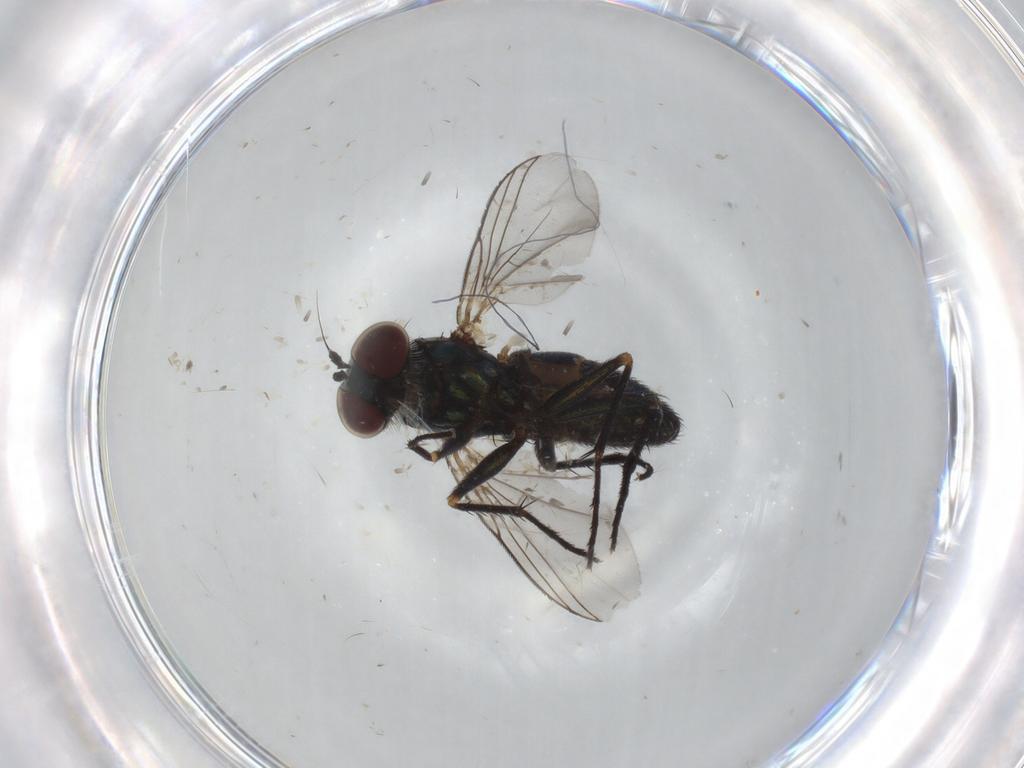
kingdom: Animalia
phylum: Arthropoda
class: Insecta
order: Diptera
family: Dolichopodidae
